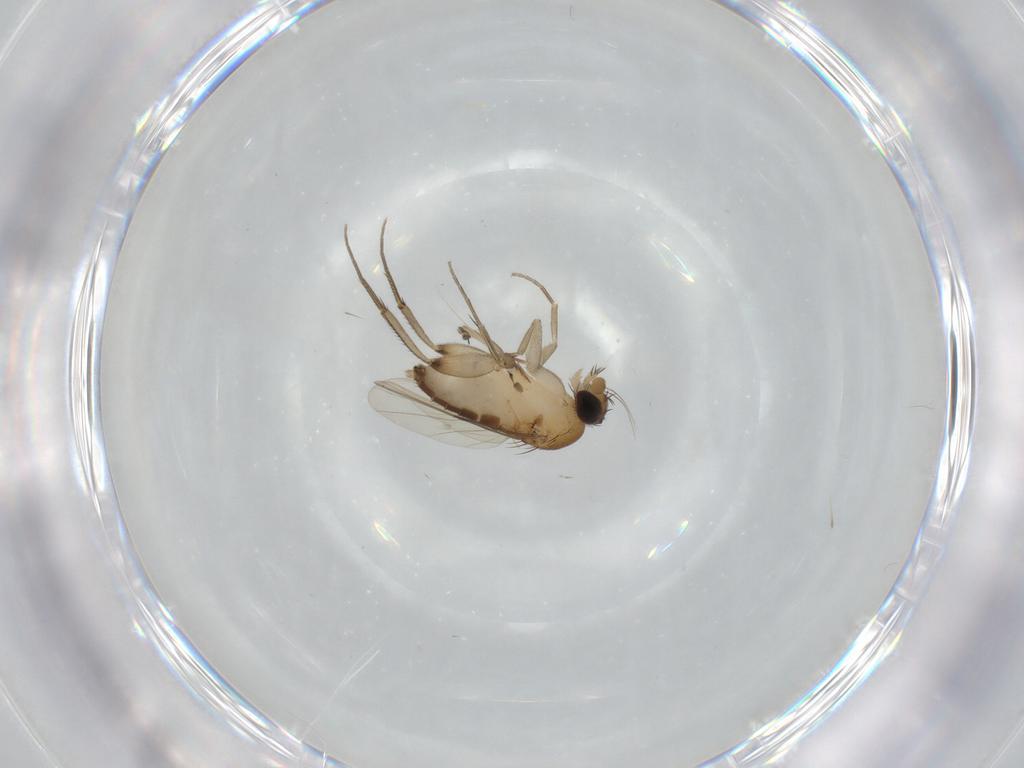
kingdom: Animalia
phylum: Arthropoda
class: Insecta
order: Diptera
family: Phoridae
